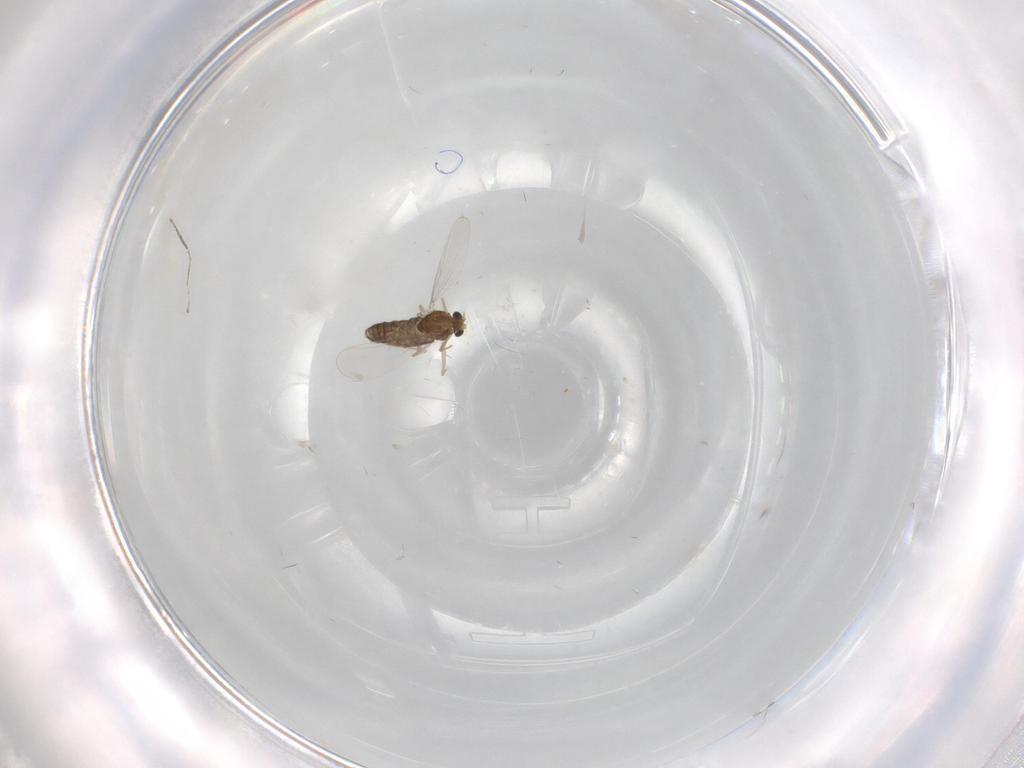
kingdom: Animalia
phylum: Arthropoda
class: Insecta
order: Diptera
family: Chironomidae
